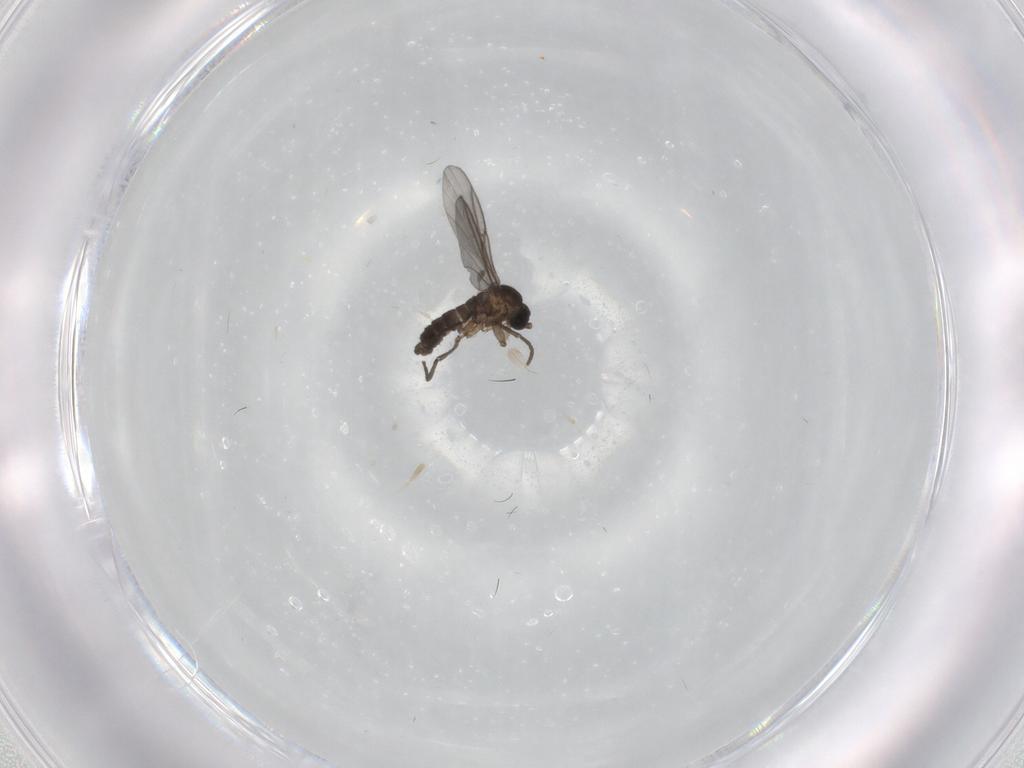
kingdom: Animalia
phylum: Arthropoda
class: Insecta
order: Diptera
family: Sciaridae
